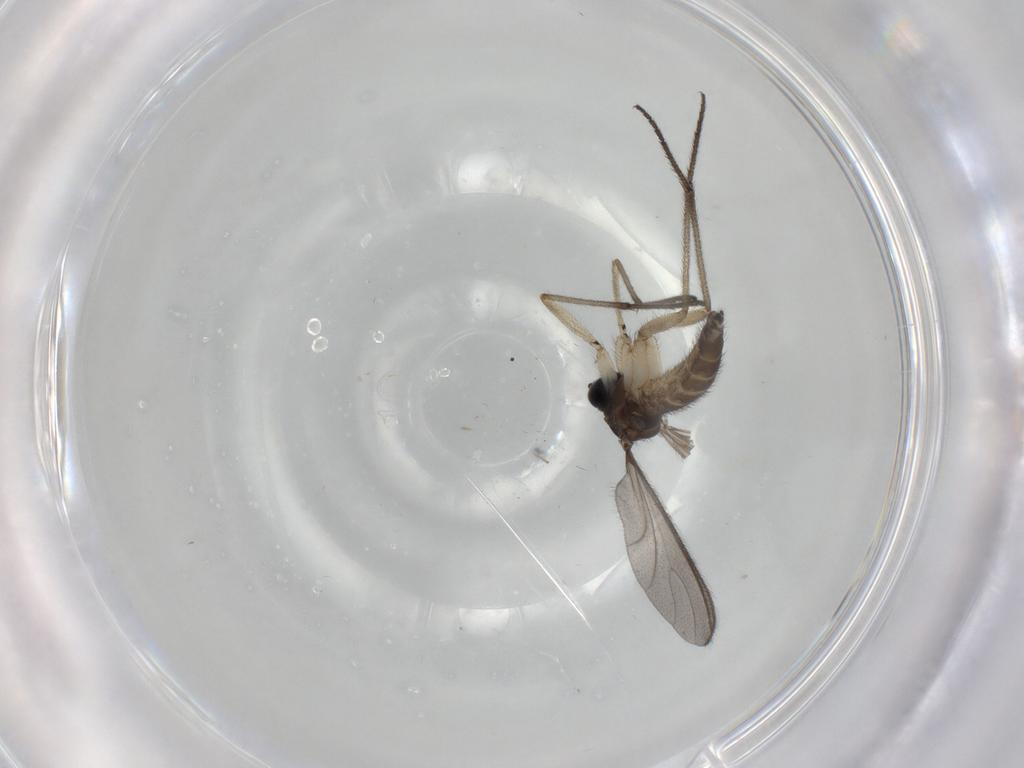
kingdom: Animalia
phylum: Arthropoda
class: Insecta
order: Diptera
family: Sciaridae
